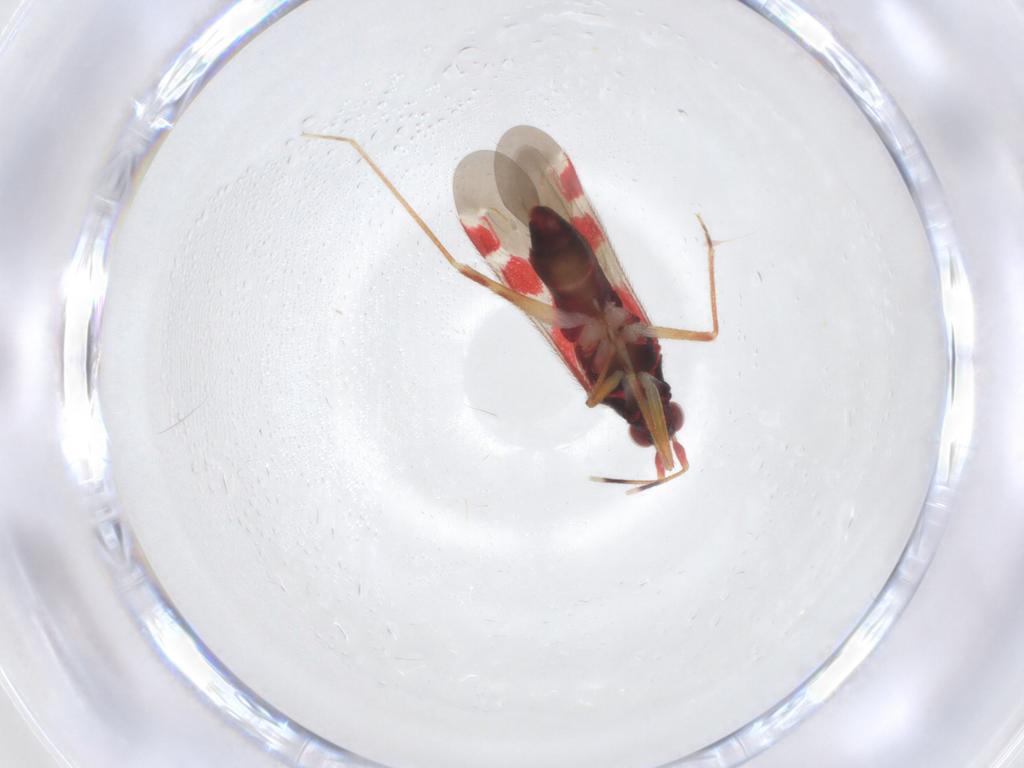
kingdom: Animalia
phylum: Arthropoda
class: Insecta
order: Hemiptera
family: Miridae
